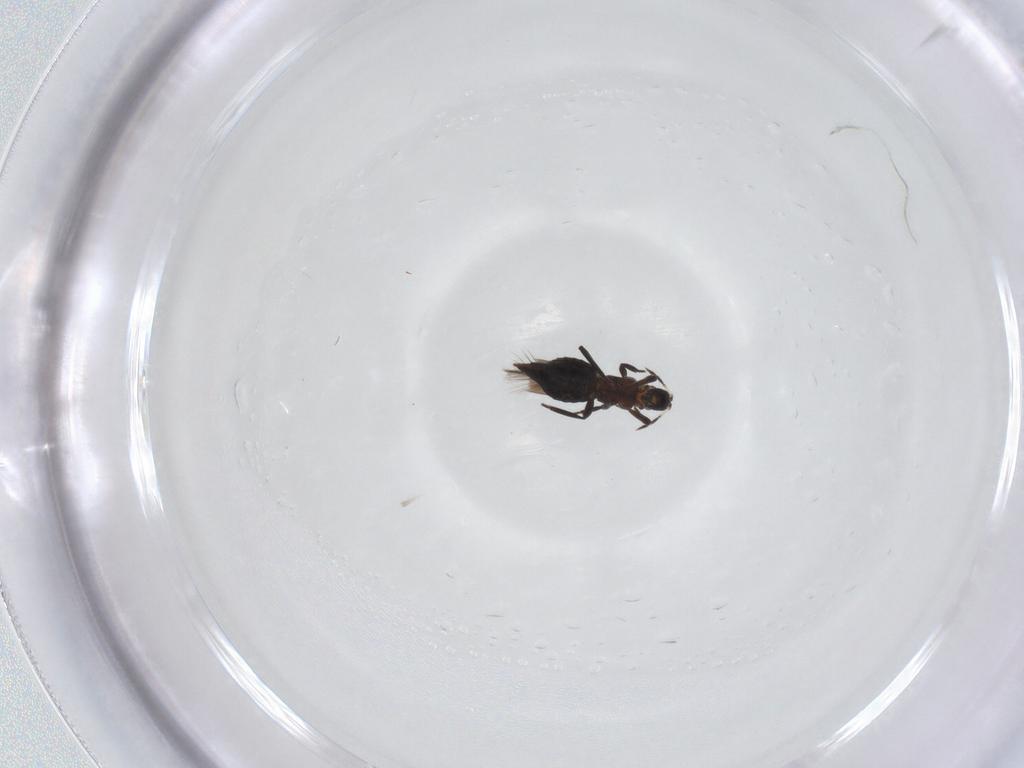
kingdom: Animalia
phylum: Arthropoda
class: Insecta
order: Thysanoptera
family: Aeolothripidae
